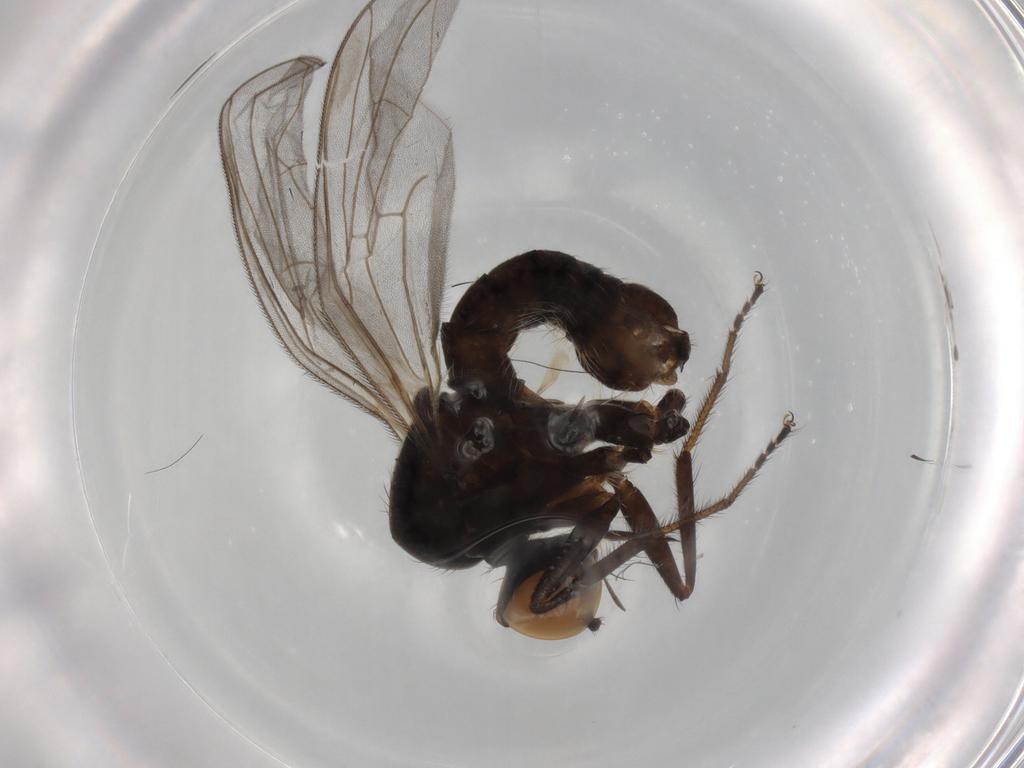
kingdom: Animalia
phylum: Arthropoda
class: Insecta
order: Diptera
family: Hybotidae
